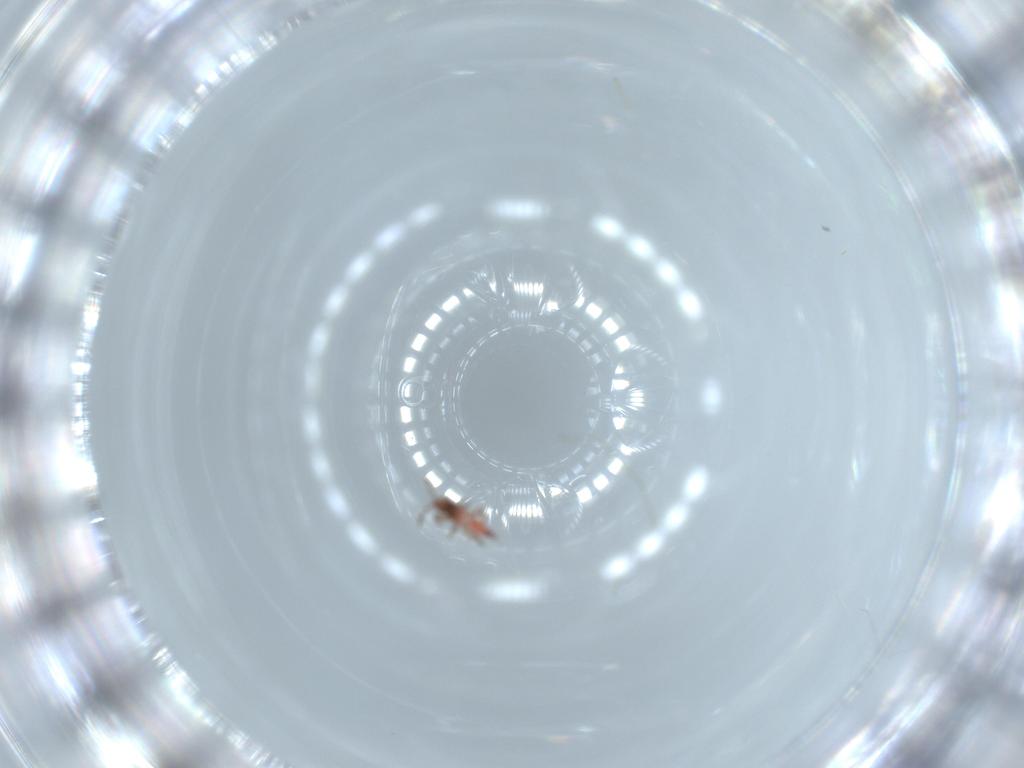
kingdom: Animalia
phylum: Arthropoda
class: Insecta
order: Thysanoptera
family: Phlaeothripidae
